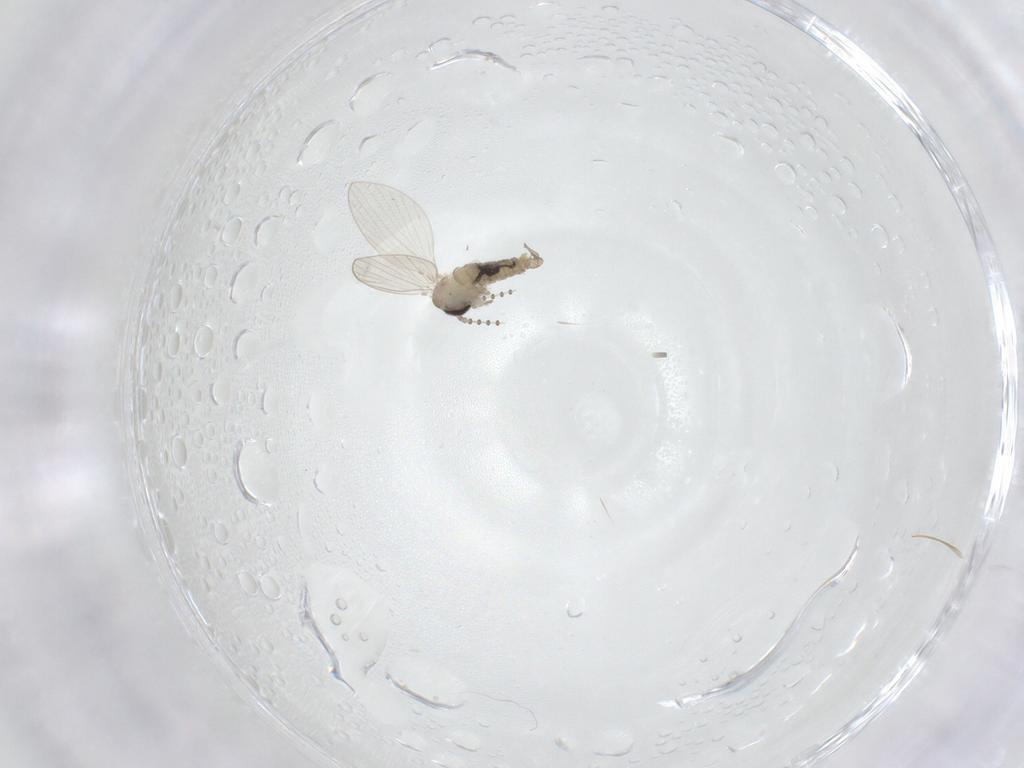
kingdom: Animalia
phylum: Arthropoda
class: Insecta
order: Diptera
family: Psychodidae
